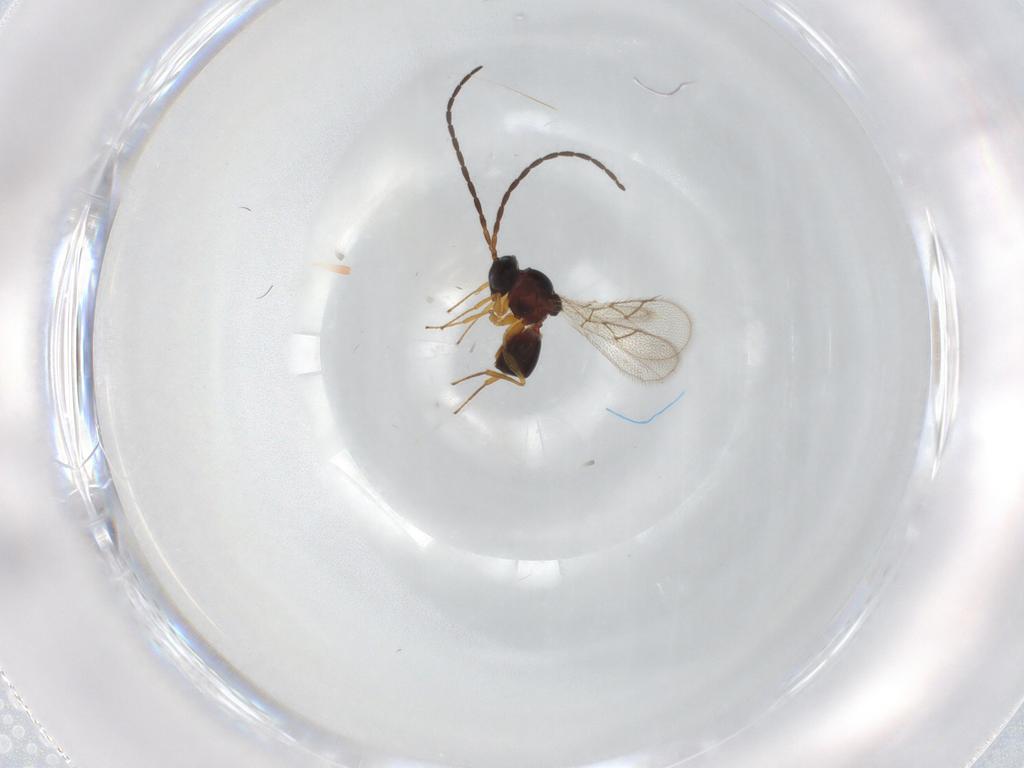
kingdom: Animalia
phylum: Arthropoda
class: Insecta
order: Hymenoptera
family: Figitidae
